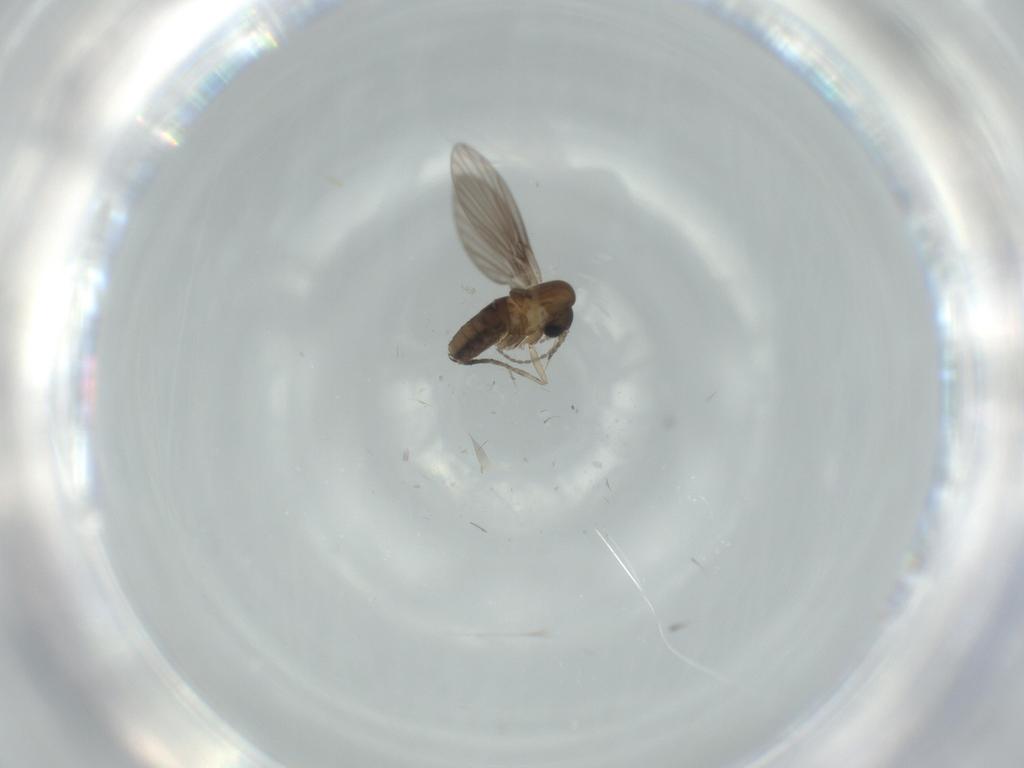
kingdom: Animalia
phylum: Arthropoda
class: Insecta
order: Diptera
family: Psychodidae
